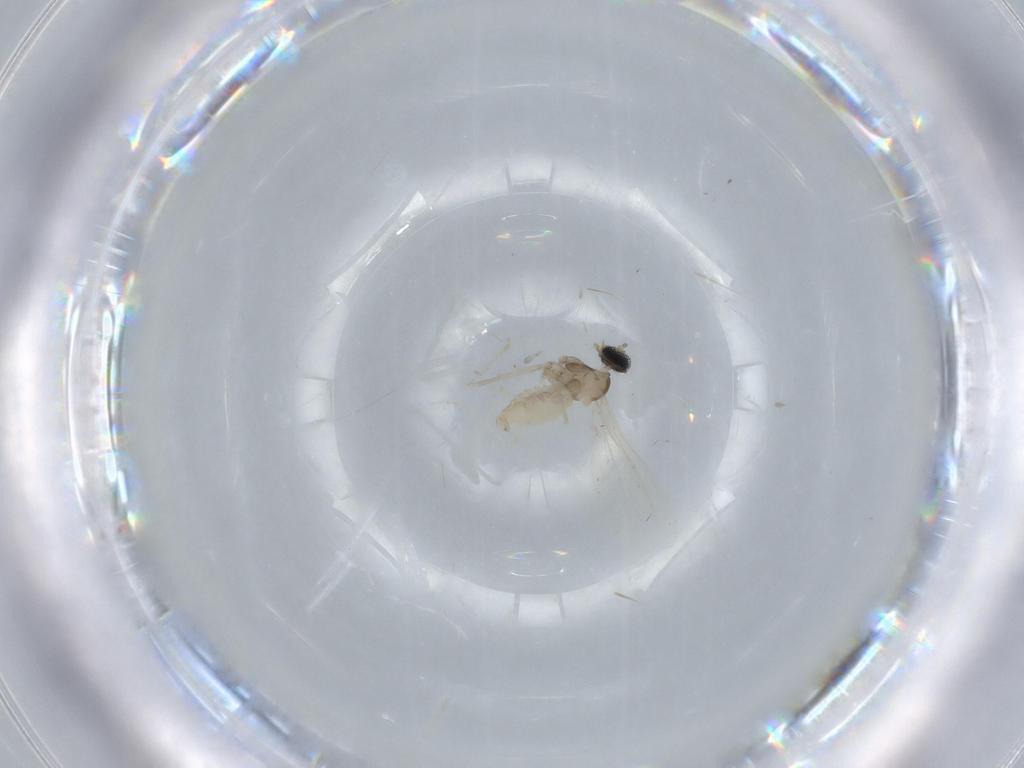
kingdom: Animalia
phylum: Arthropoda
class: Insecta
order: Diptera
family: Cecidomyiidae
